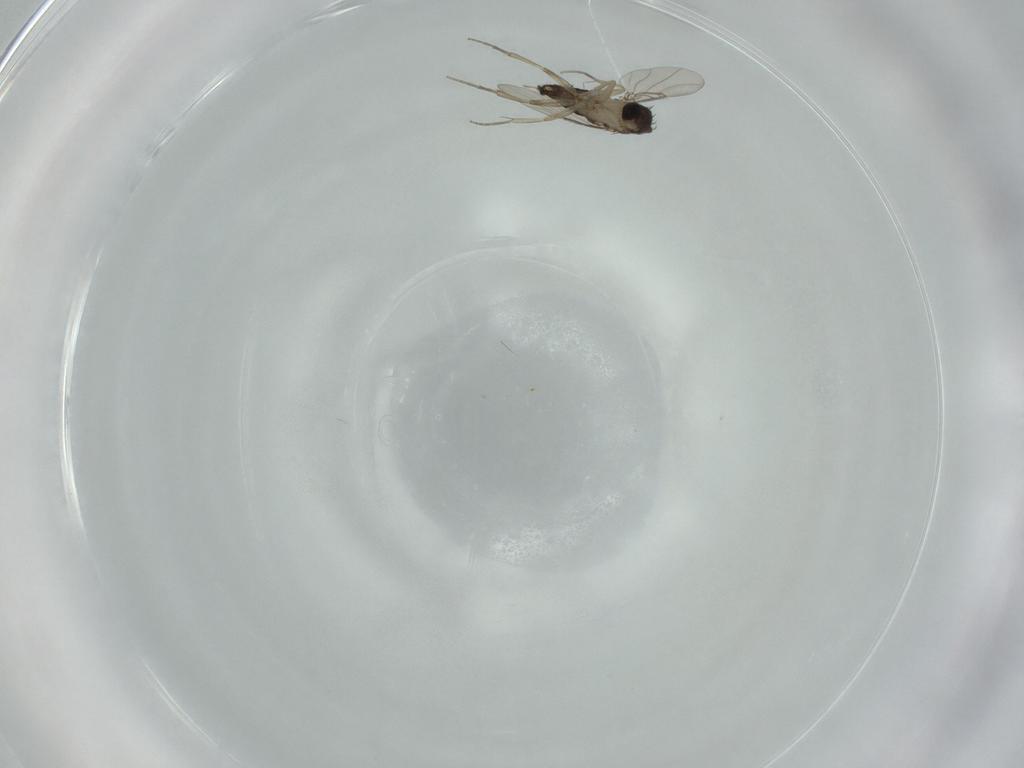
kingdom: Animalia
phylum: Arthropoda
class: Insecta
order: Diptera
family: Phoridae
